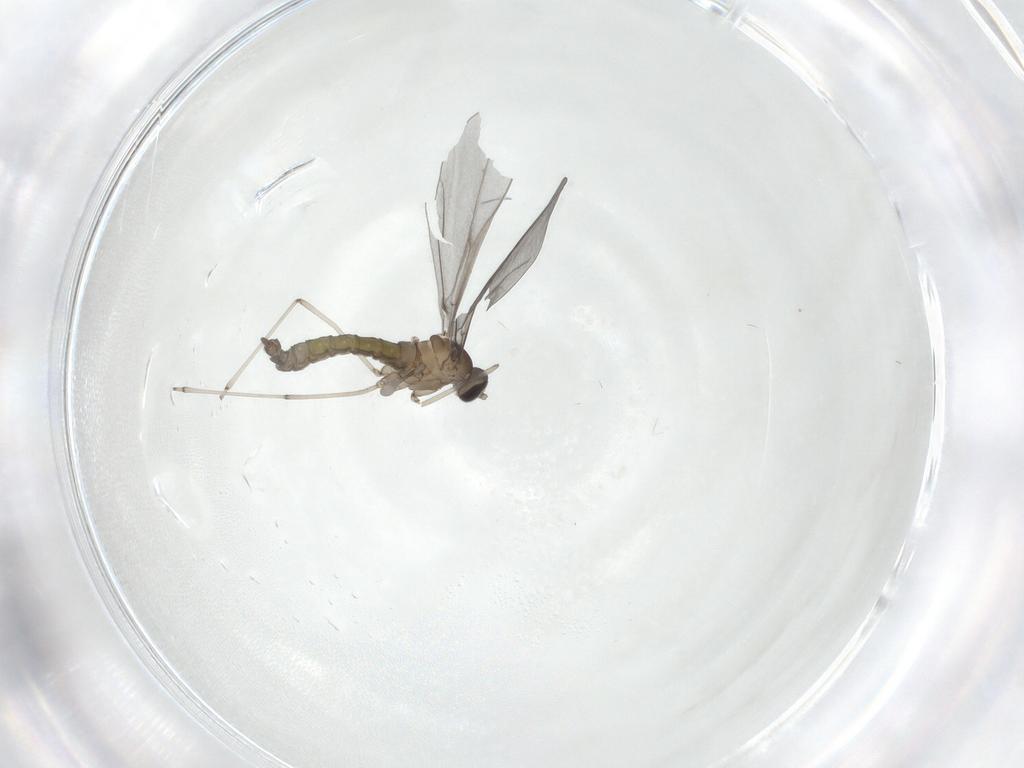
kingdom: Animalia
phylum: Arthropoda
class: Insecta
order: Diptera
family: Cecidomyiidae
